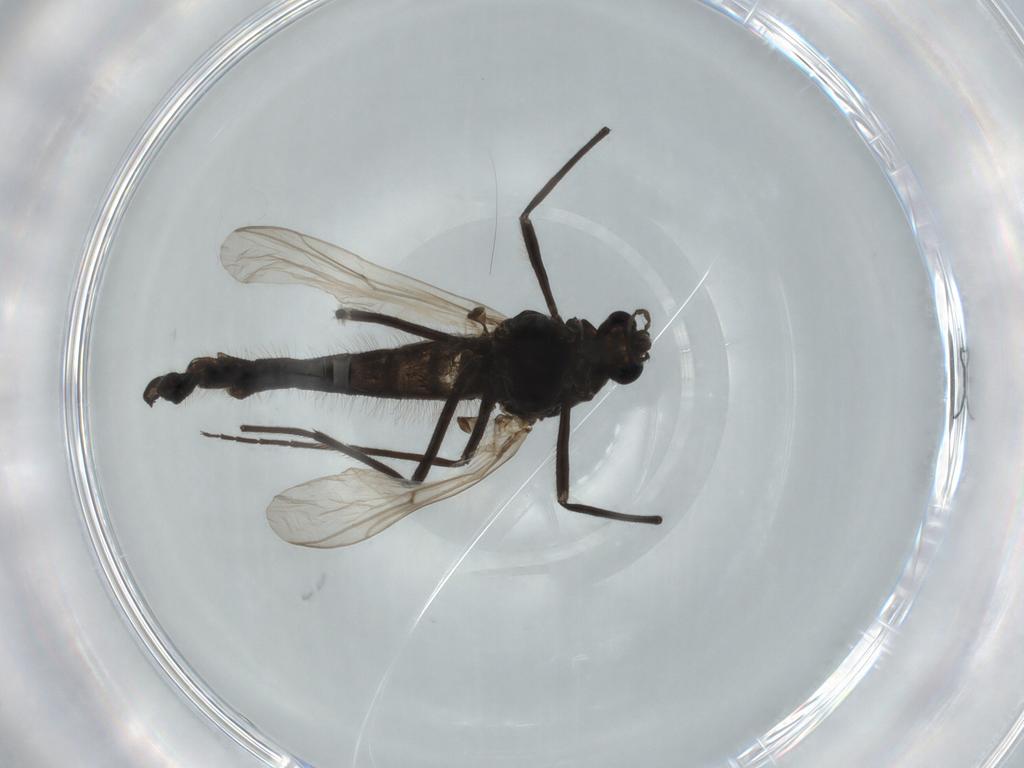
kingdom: Animalia
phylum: Arthropoda
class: Insecta
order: Diptera
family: Chironomidae
